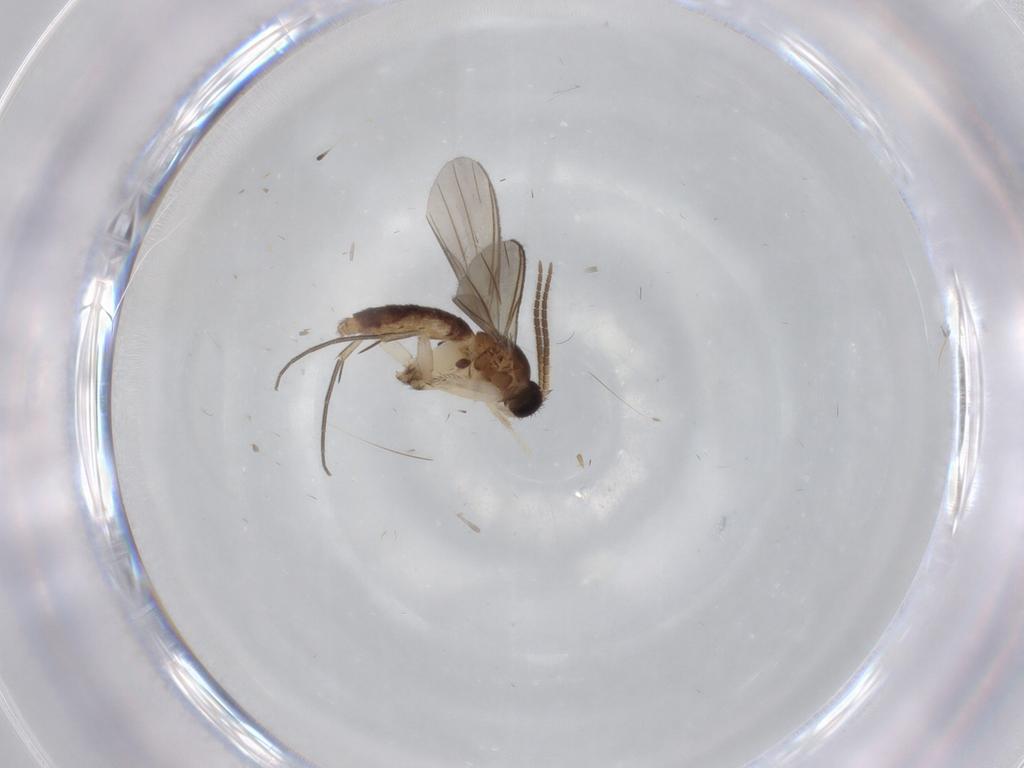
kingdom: Animalia
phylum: Arthropoda
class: Insecta
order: Diptera
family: Mycetophilidae
